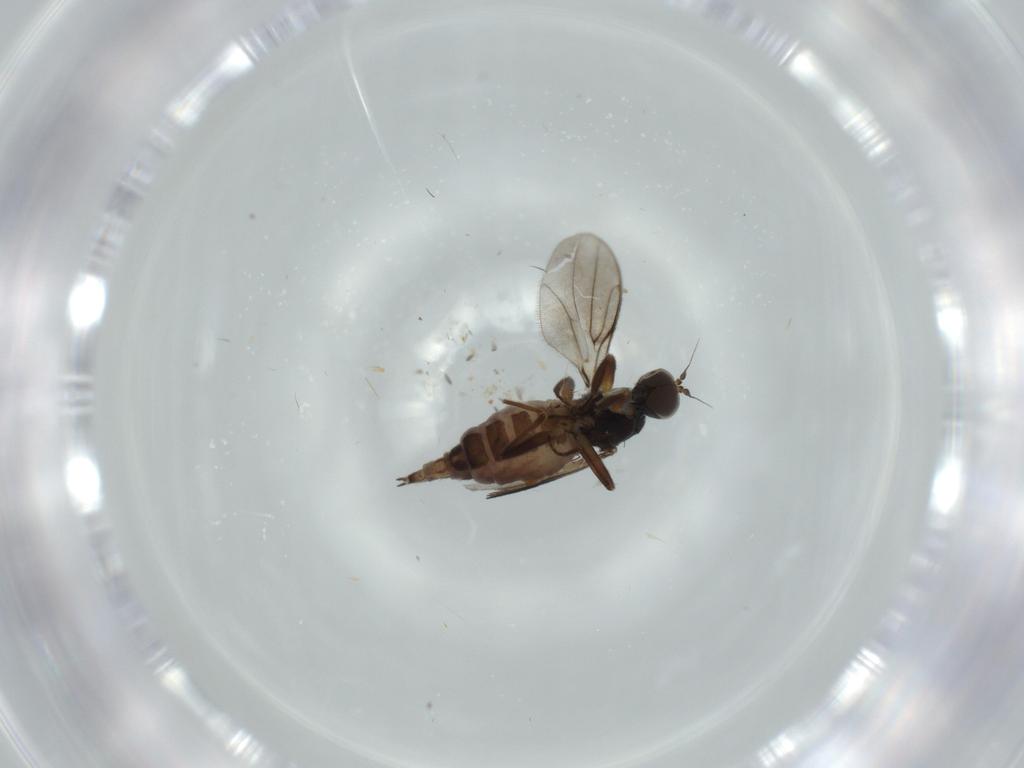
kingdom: Animalia
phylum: Arthropoda
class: Insecta
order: Diptera
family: Hybotidae
